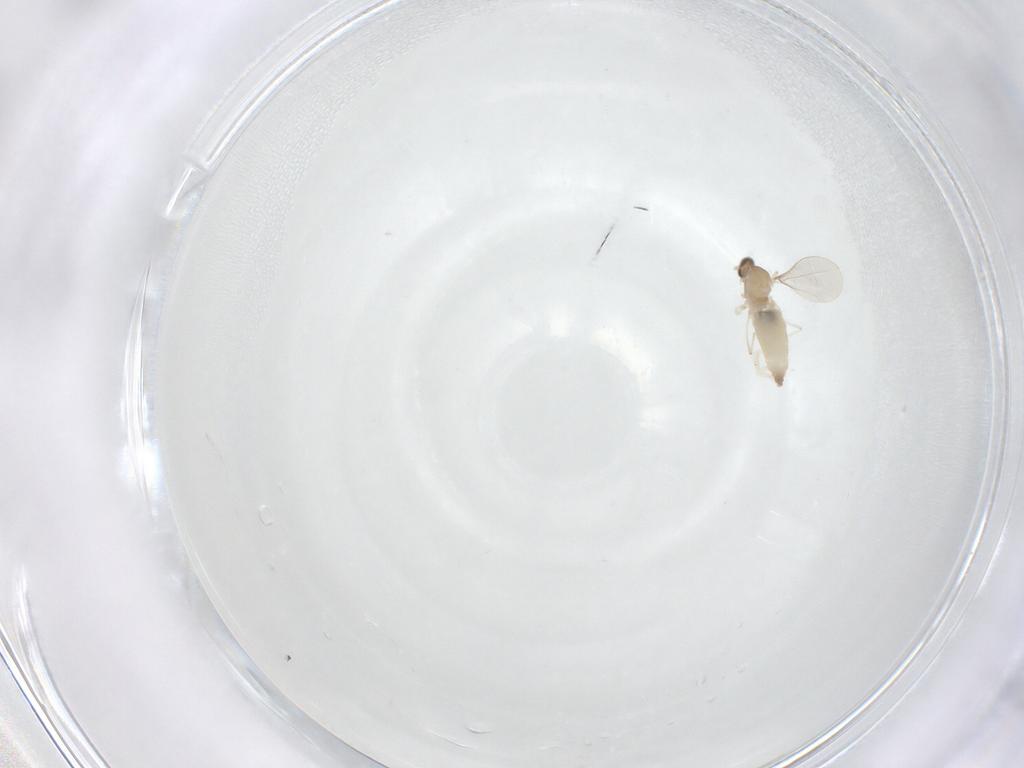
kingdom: Animalia
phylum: Arthropoda
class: Insecta
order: Diptera
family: Cecidomyiidae
